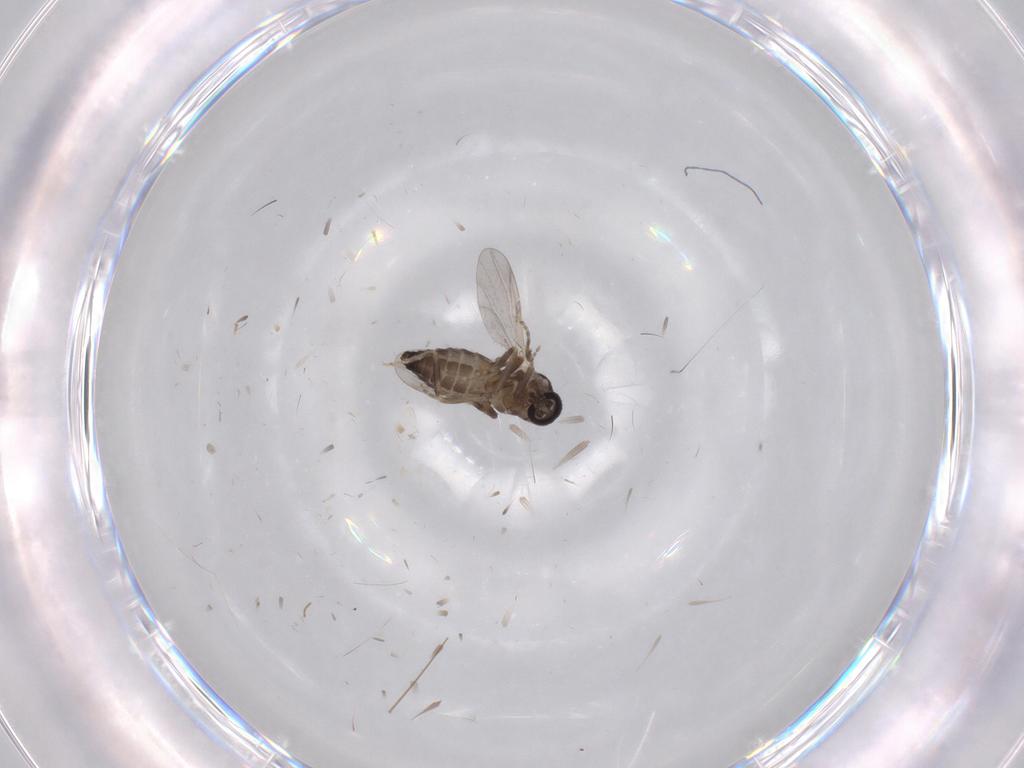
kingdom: Animalia
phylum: Arthropoda
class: Insecta
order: Diptera
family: Ceratopogonidae
